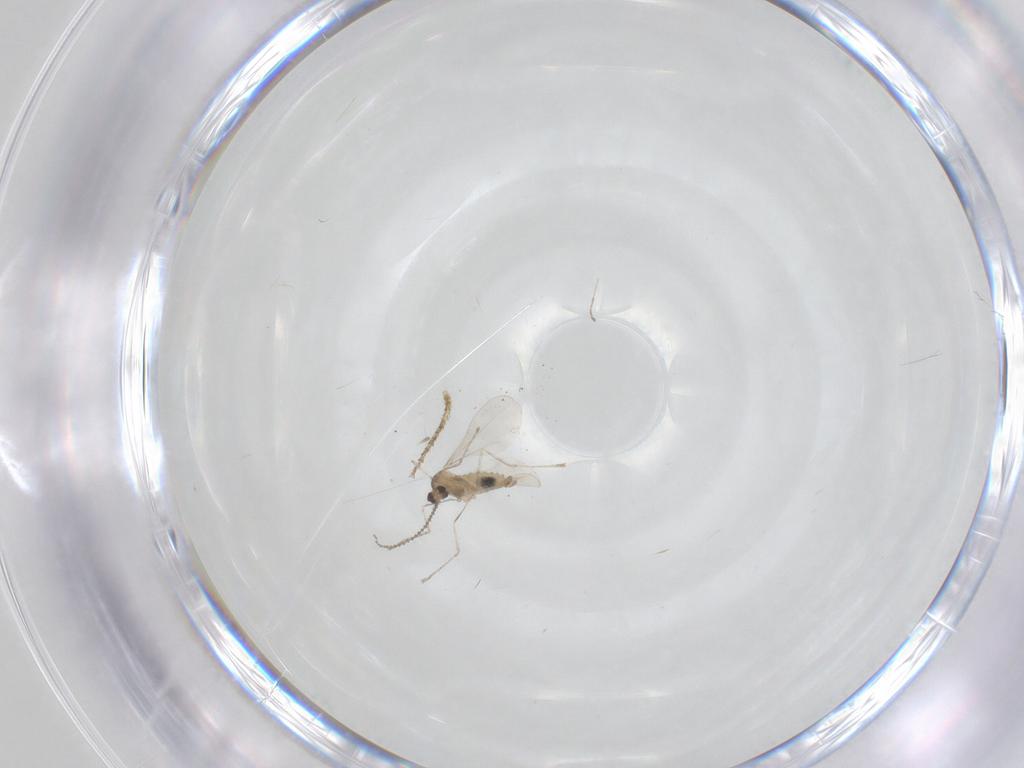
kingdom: Animalia
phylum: Arthropoda
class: Insecta
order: Diptera
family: Cecidomyiidae
